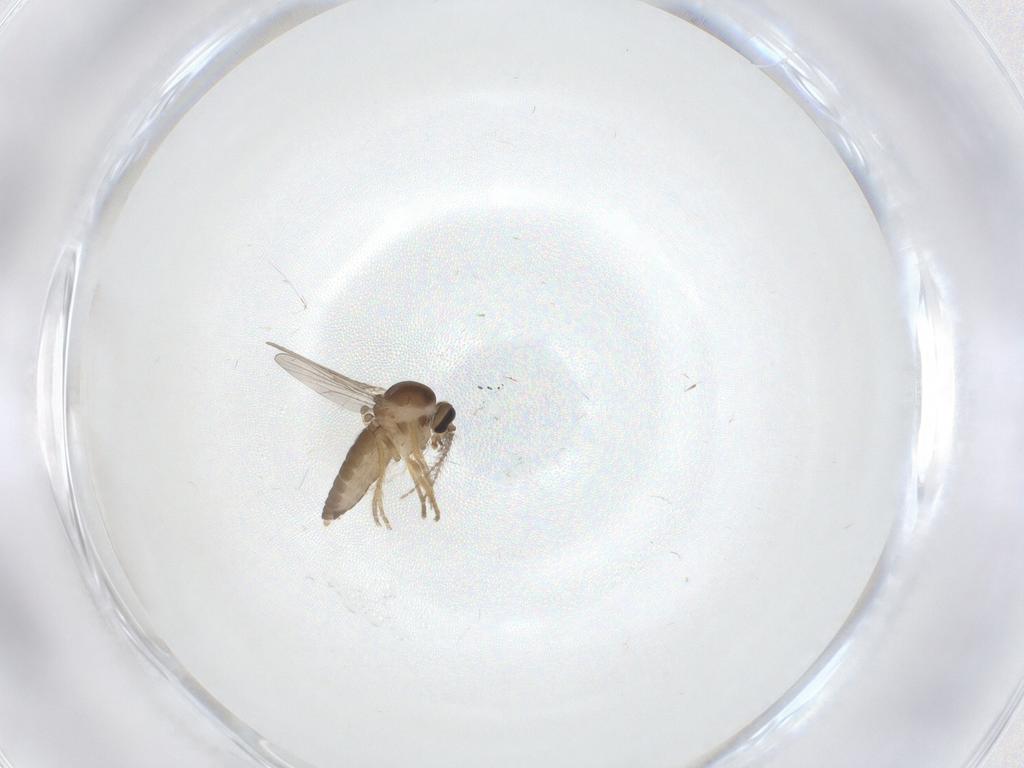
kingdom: Animalia
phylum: Arthropoda
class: Insecta
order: Diptera
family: Ceratopogonidae
